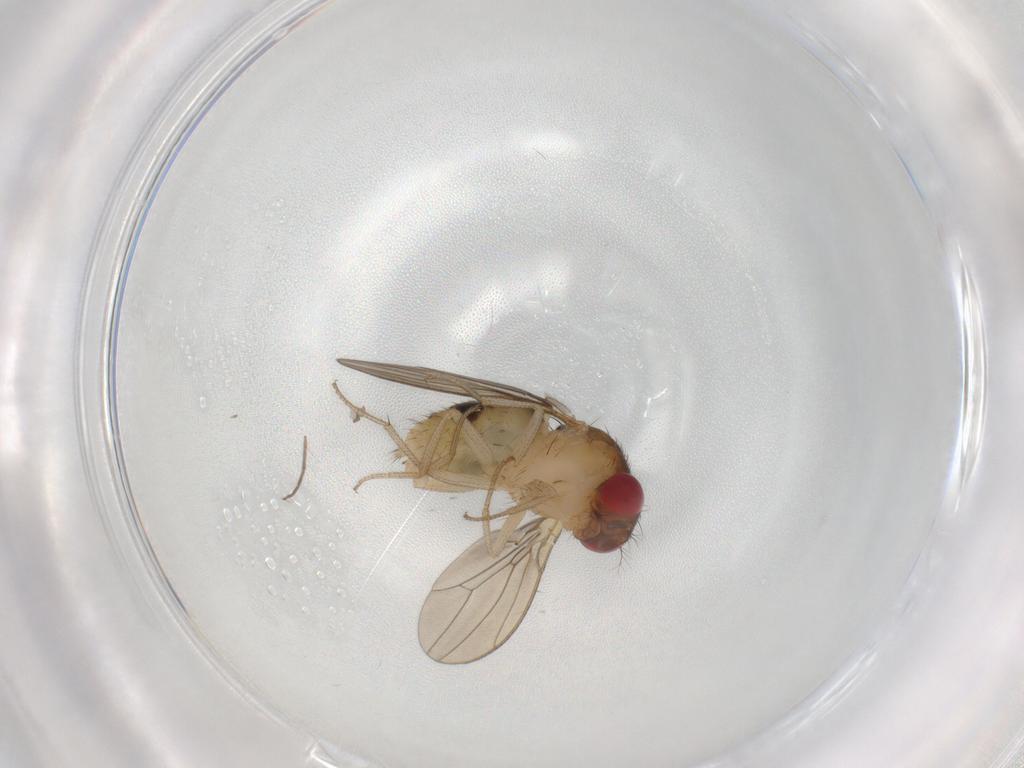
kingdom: Animalia
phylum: Arthropoda
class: Insecta
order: Diptera
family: Drosophilidae
